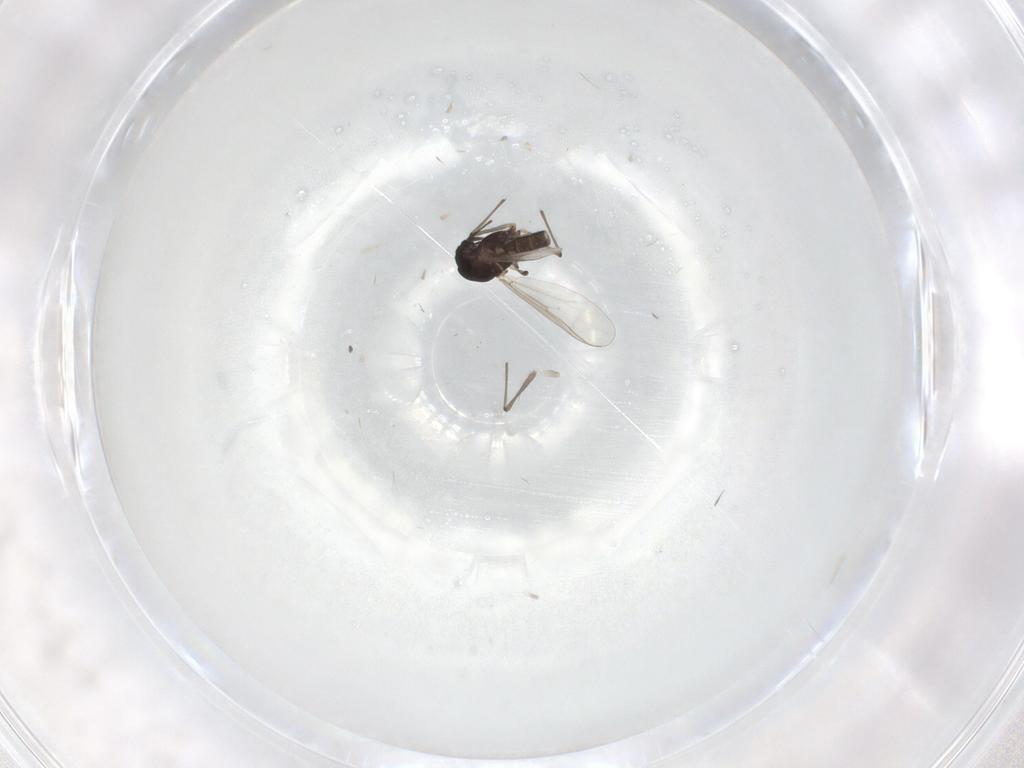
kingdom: Animalia
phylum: Arthropoda
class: Insecta
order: Diptera
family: Chironomidae
